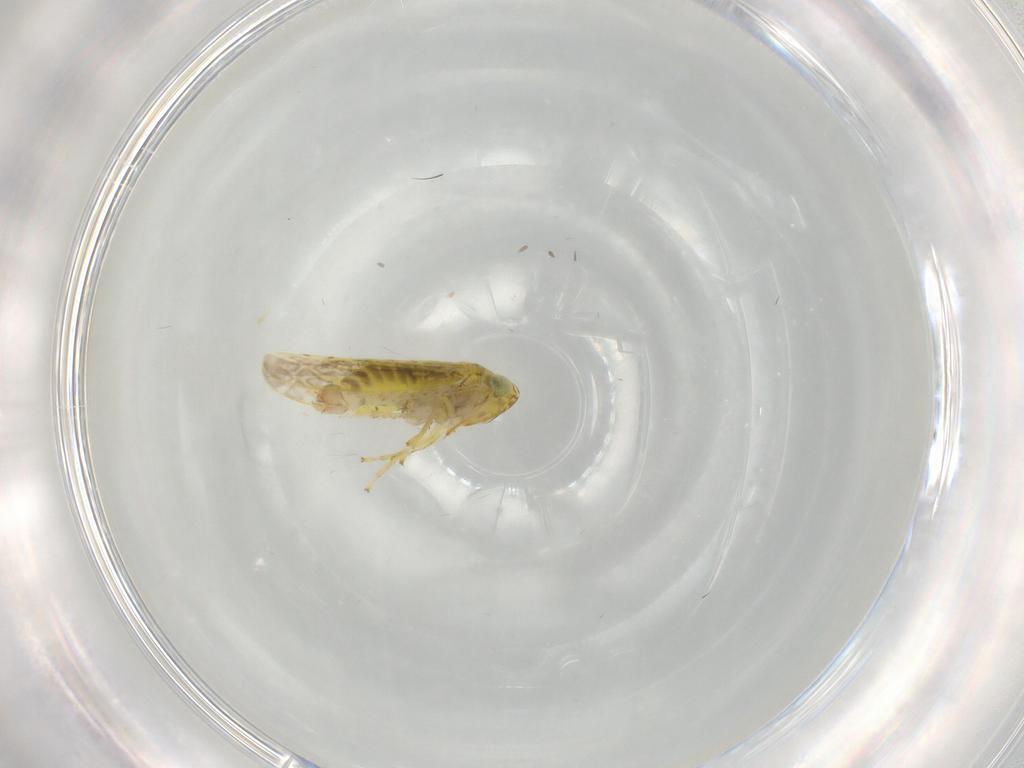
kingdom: Animalia
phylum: Arthropoda
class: Insecta
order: Hemiptera
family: Cicadellidae
